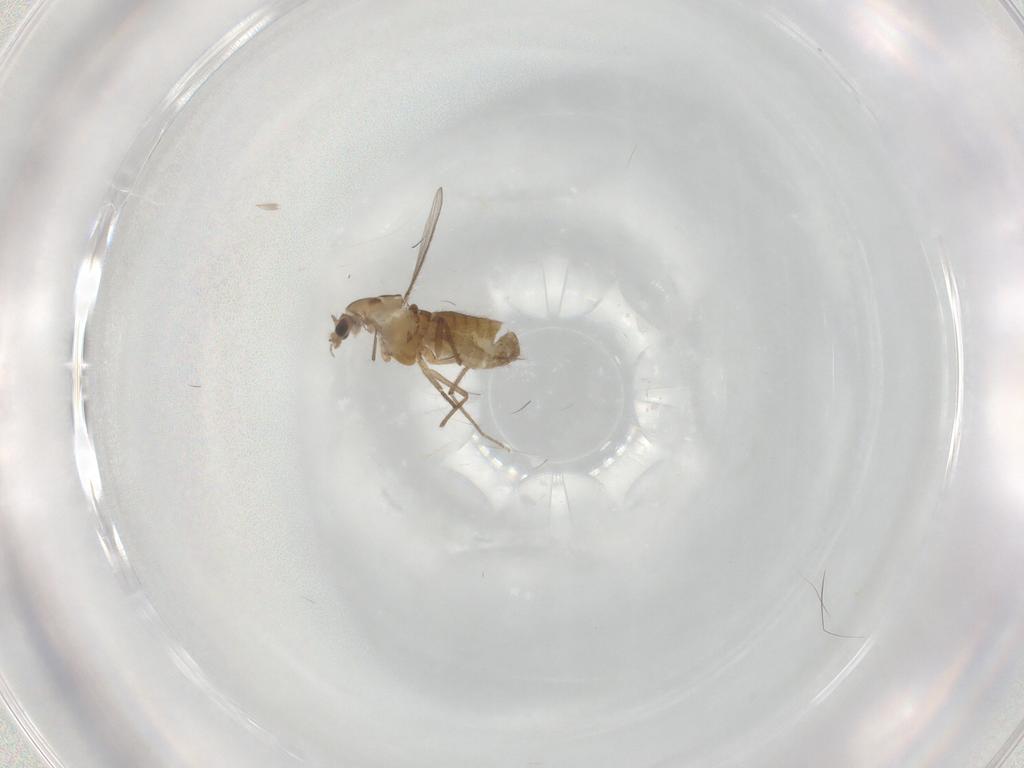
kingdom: Animalia
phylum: Arthropoda
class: Insecta
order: Diptera
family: Chironomidae
